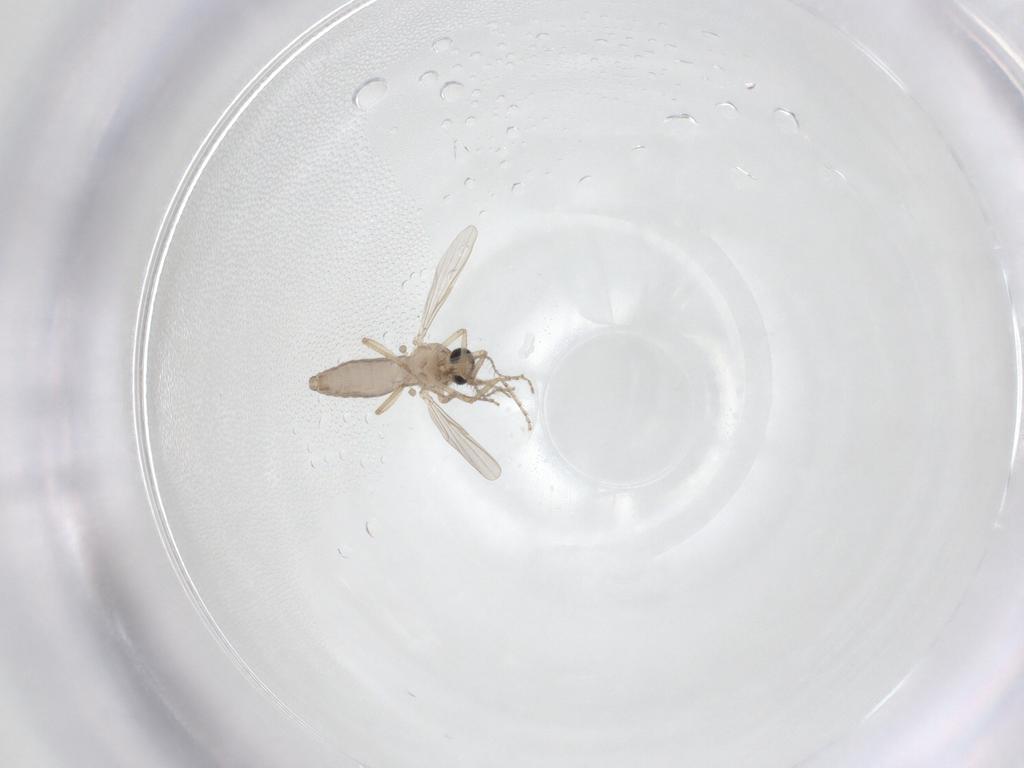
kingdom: Animalia
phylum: Arthropoda
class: Insecta
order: Diptera
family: Ceratopogonidae
